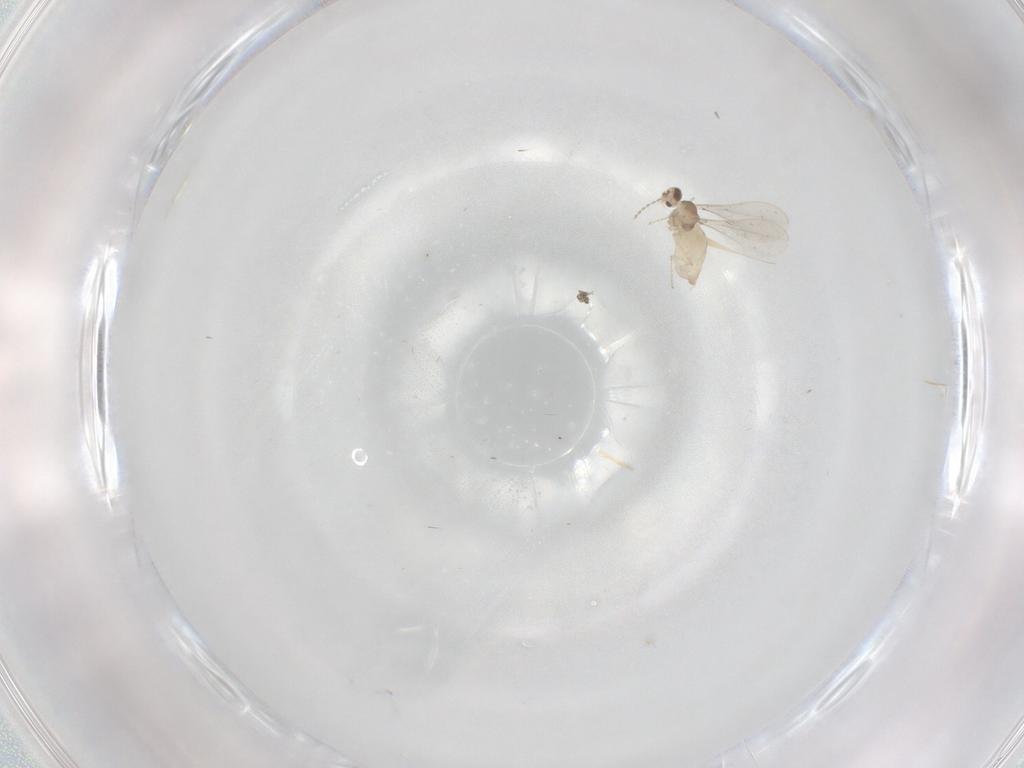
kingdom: Animalia
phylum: Arthropoda
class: Insecta
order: Diptera
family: Cecidomyiidae
